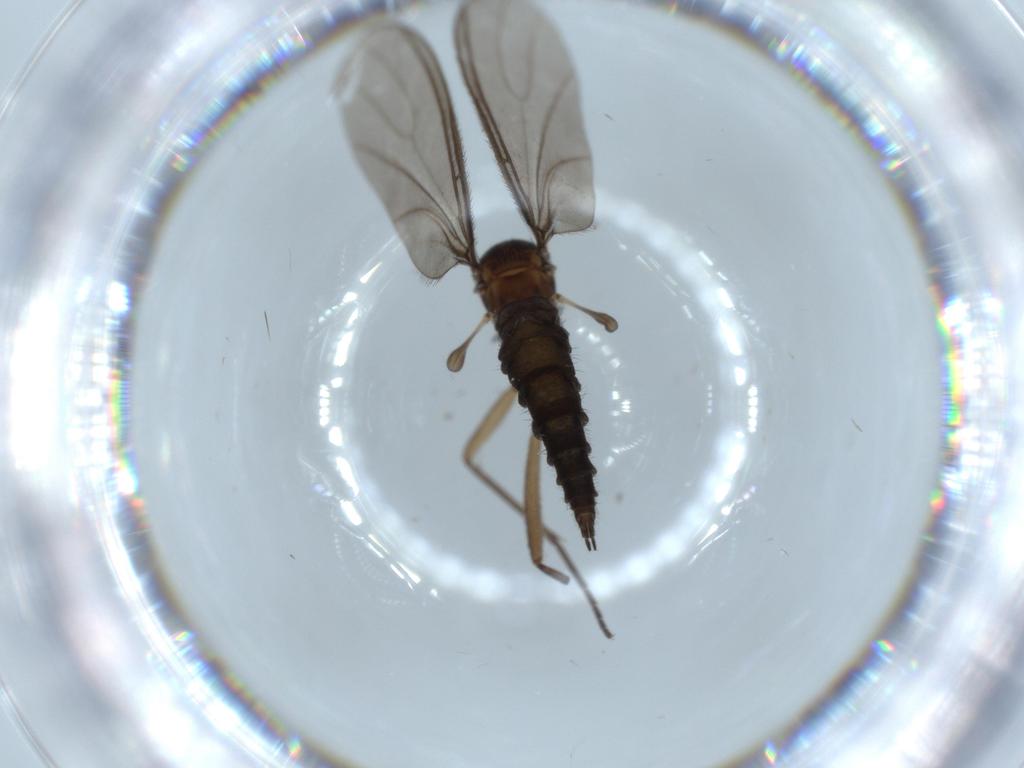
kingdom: Animalia
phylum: Arthropoda
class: Insecta
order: Diptera
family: Sciaridae
